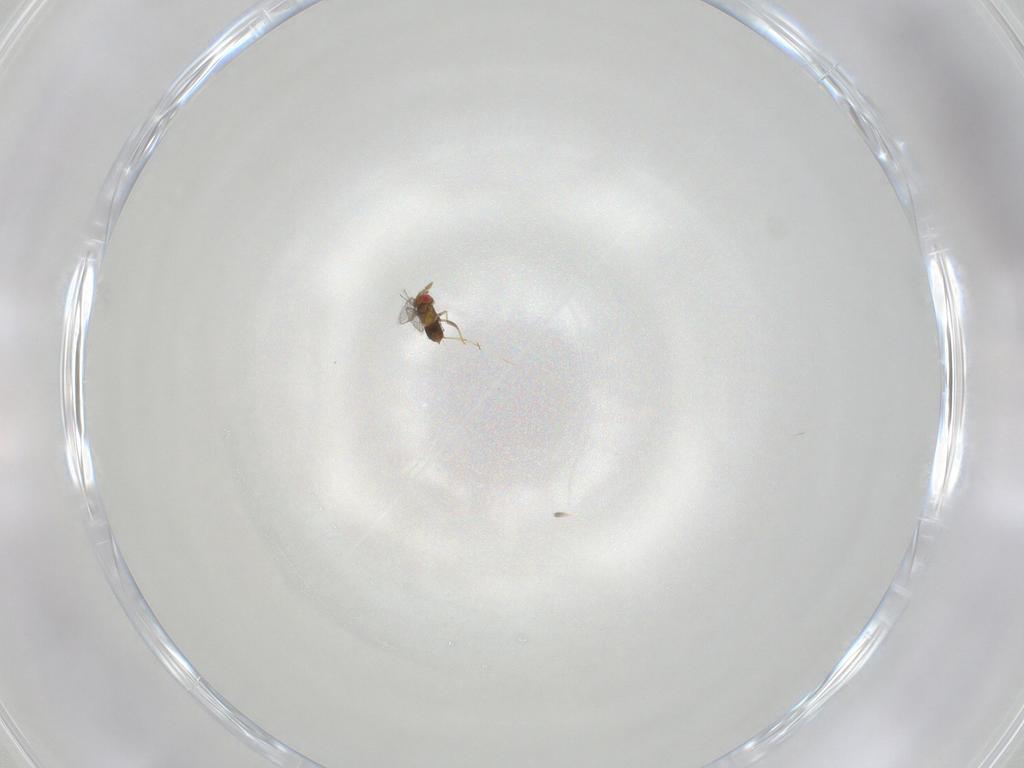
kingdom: Animalia
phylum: Arthropoda
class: Insecta
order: Hymenoptera
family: Trichogrammatidae
